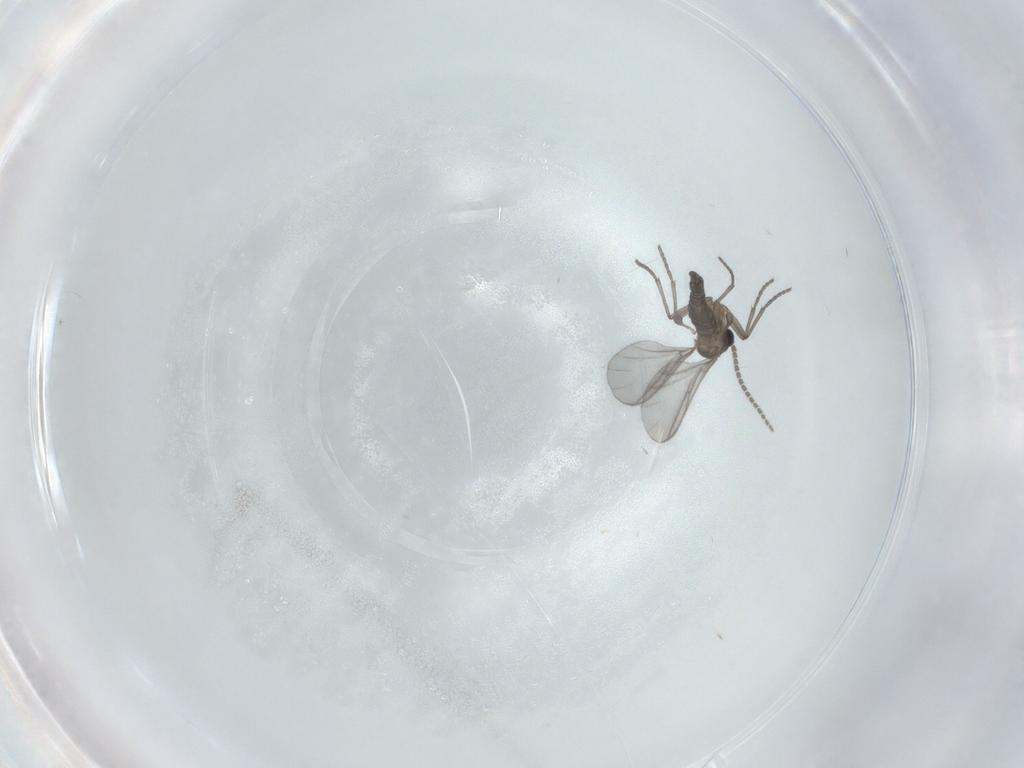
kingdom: Animalia
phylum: Arthropoda
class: Insecta
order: Diptera
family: Sciaridae
